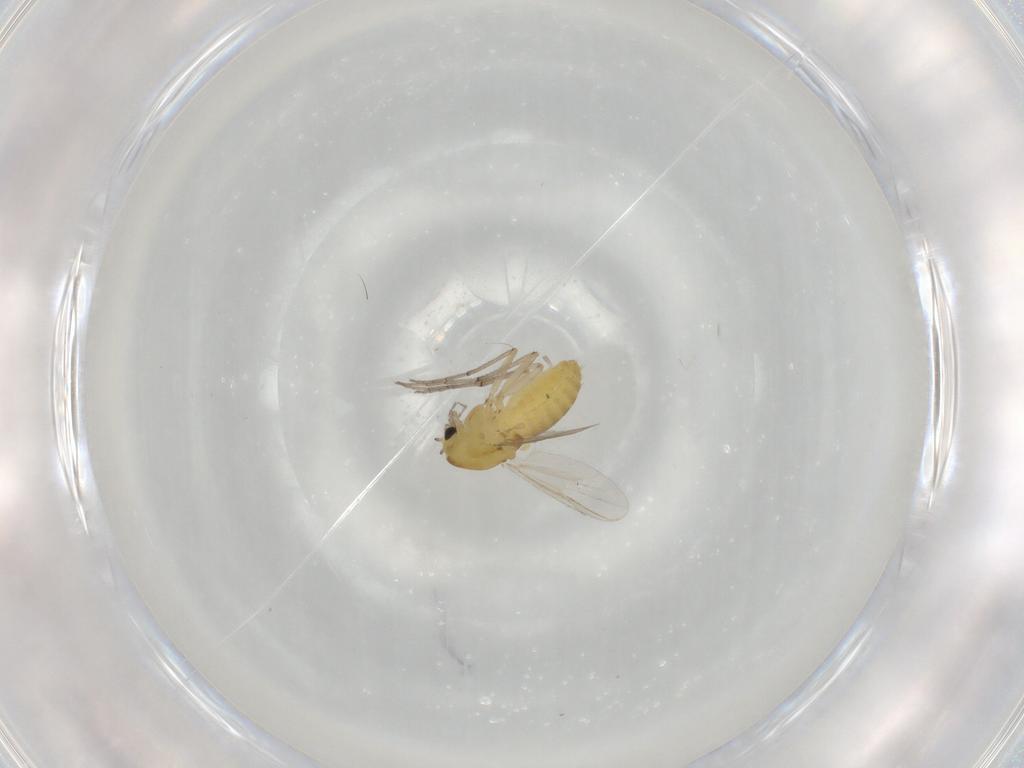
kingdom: Animalia
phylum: Arthropoda
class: Insecta
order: Diptera
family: Chironomidae
